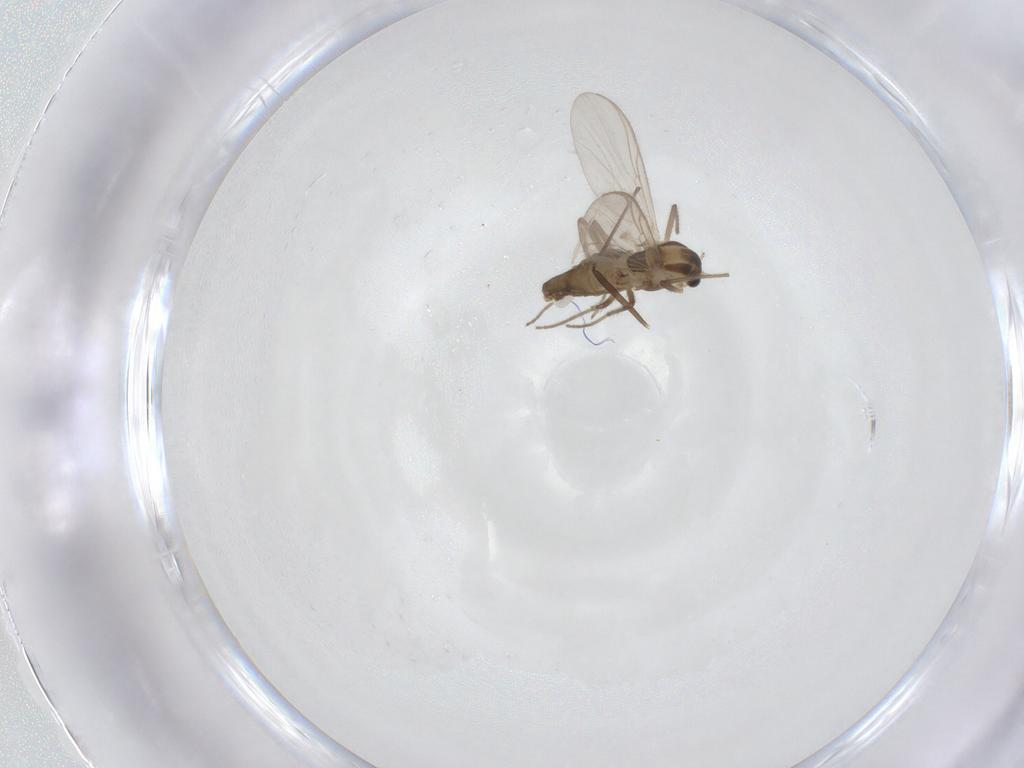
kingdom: Animalia
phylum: Arthropoda
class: Insecta
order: Diptera
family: Chironomidae
